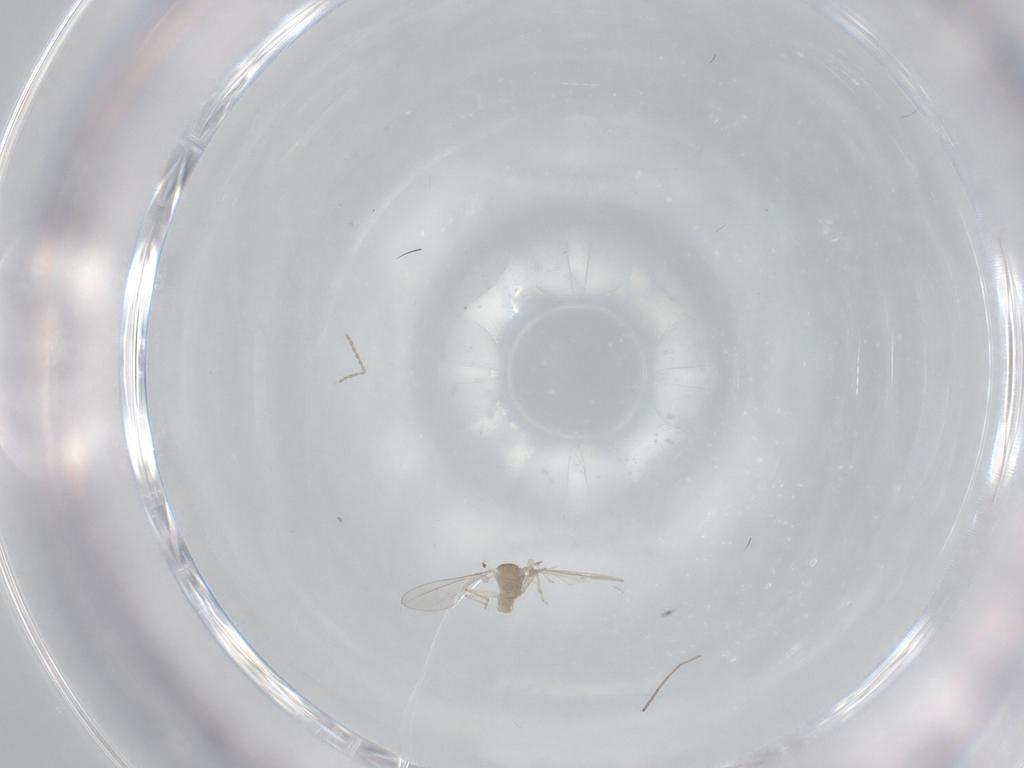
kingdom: Animalia
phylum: Arthropoda
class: Insecta
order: Diptera
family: Cecidomyiidae
